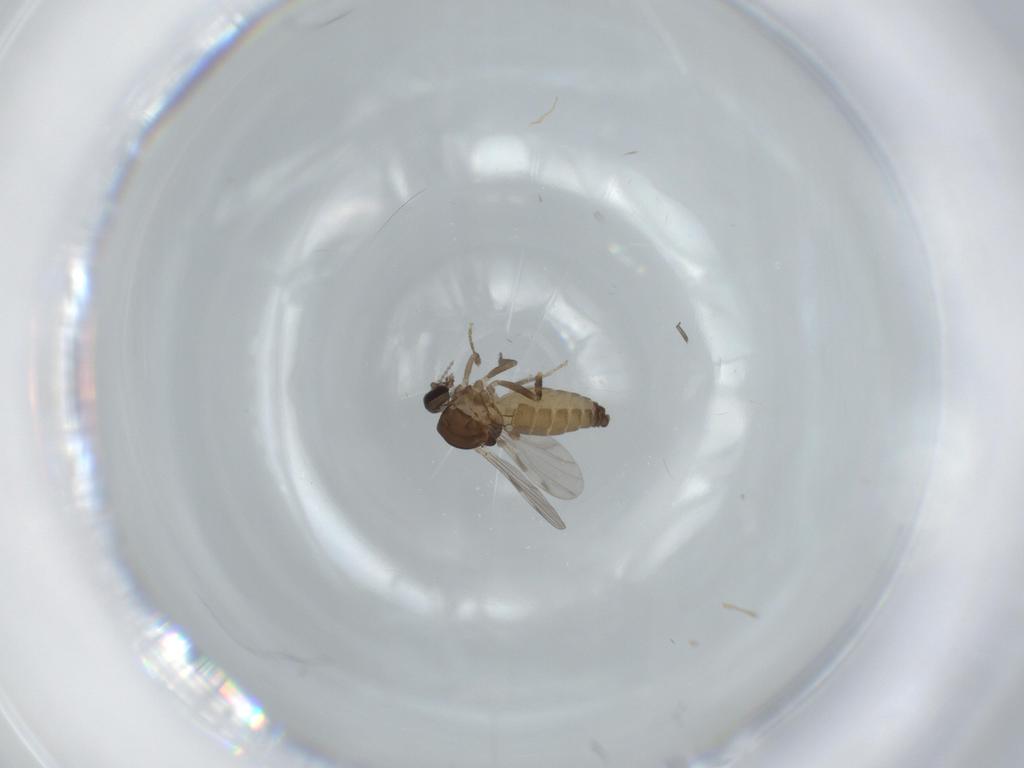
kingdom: Animalia
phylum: Arthropoda
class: Insecta
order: Diptera
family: Ceratopogonidae
